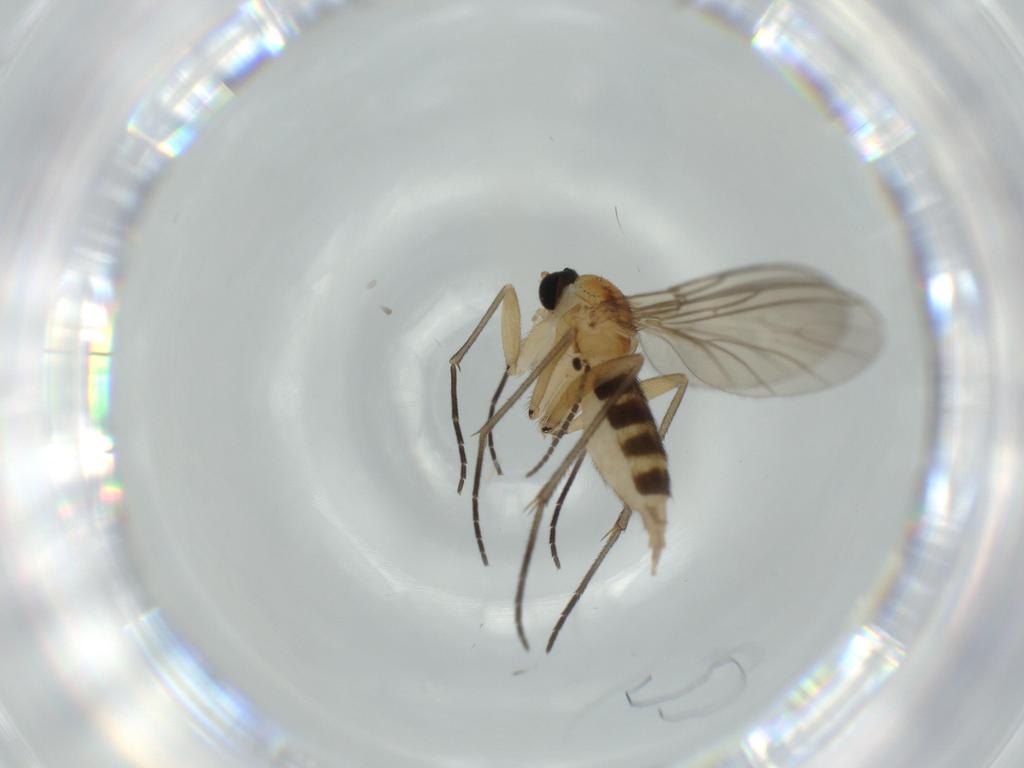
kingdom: Animalia
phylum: Arthropoda
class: Insecta
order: Diptera
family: Sciaridae
